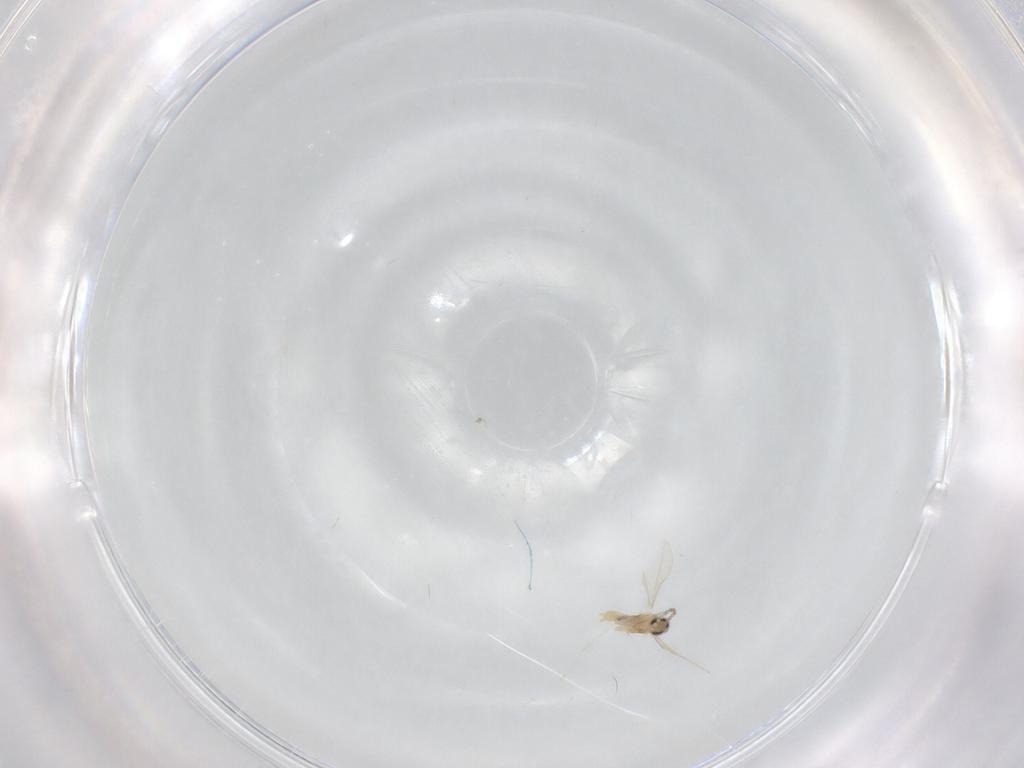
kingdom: Animalia
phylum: Arthropoda
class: Insecta
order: Diptera
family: Cecidomyiidae
